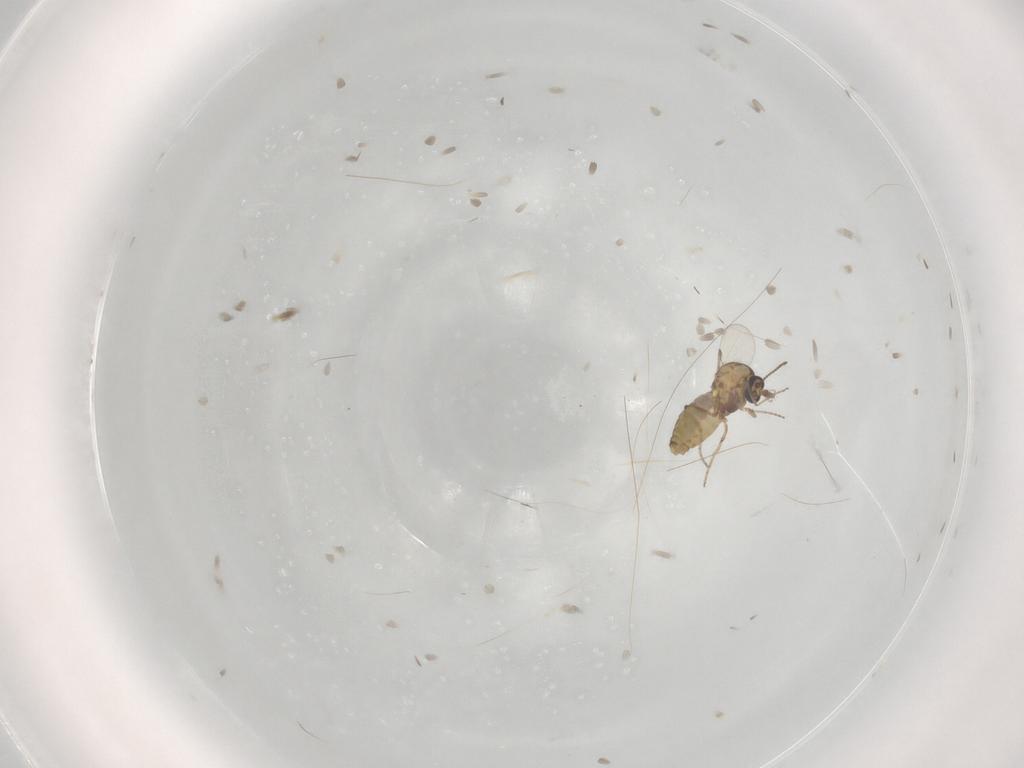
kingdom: Animalia
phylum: Arthropoda
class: Insecta
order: Diptera
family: Ceratopogonidae
